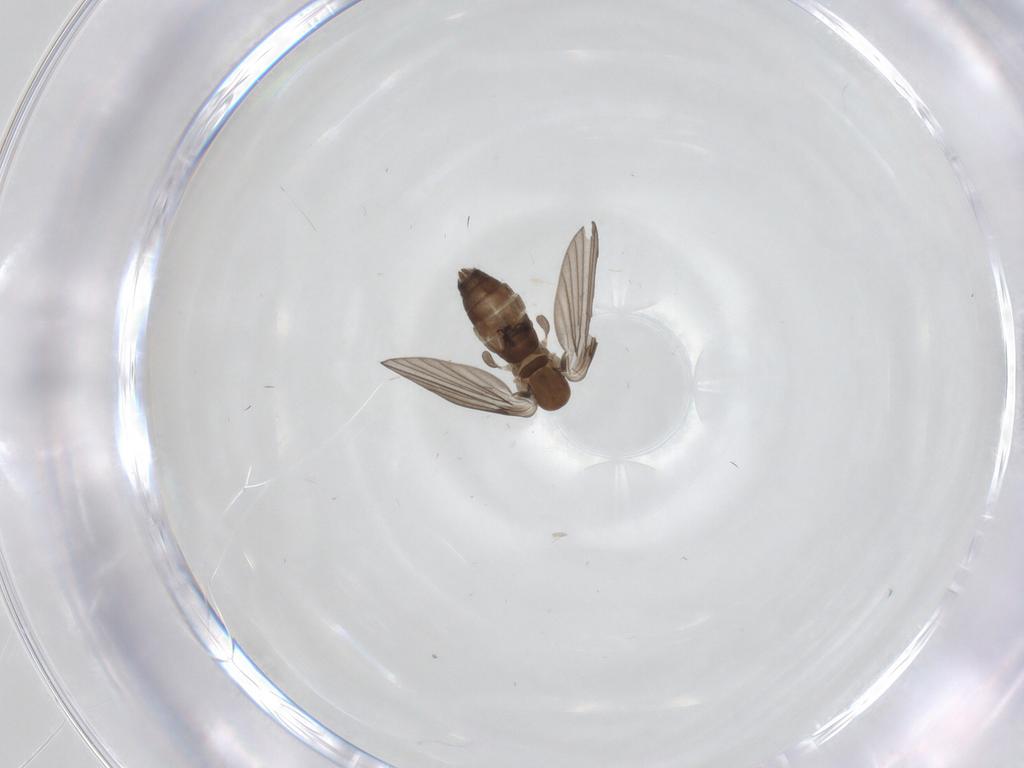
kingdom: Animalia
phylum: Arthropoda
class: Insecta
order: Diptera
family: Psychodidae
